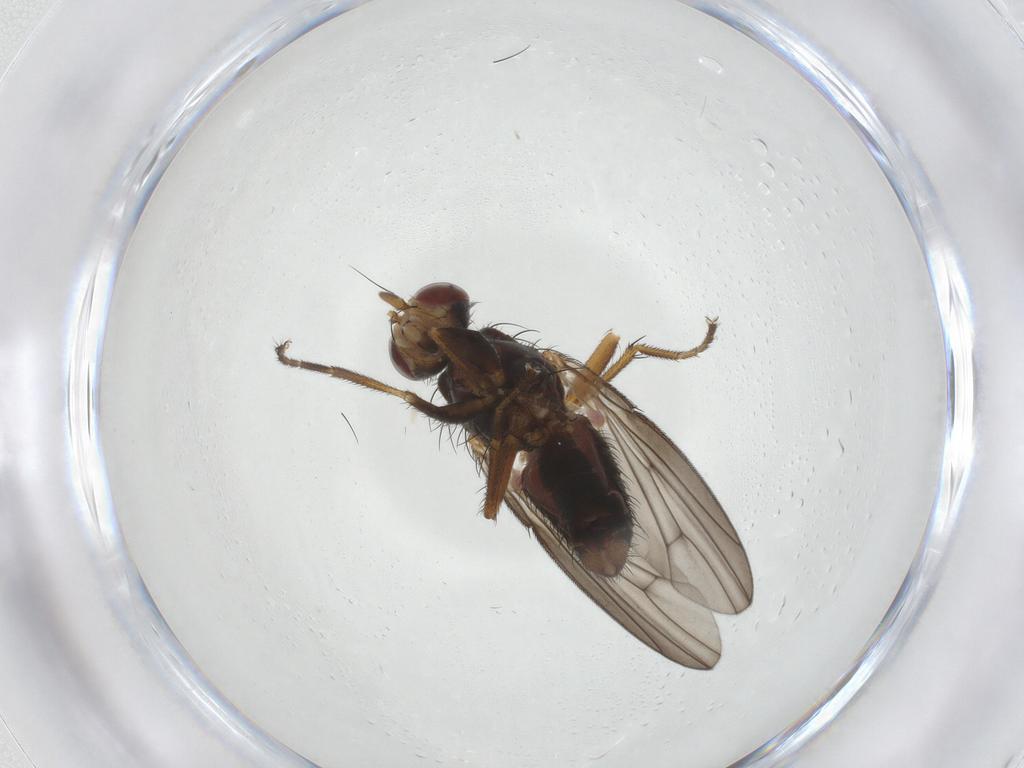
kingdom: Animalia
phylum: Arthropoda
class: Insecta
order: Diptera
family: Heleomyzidae
